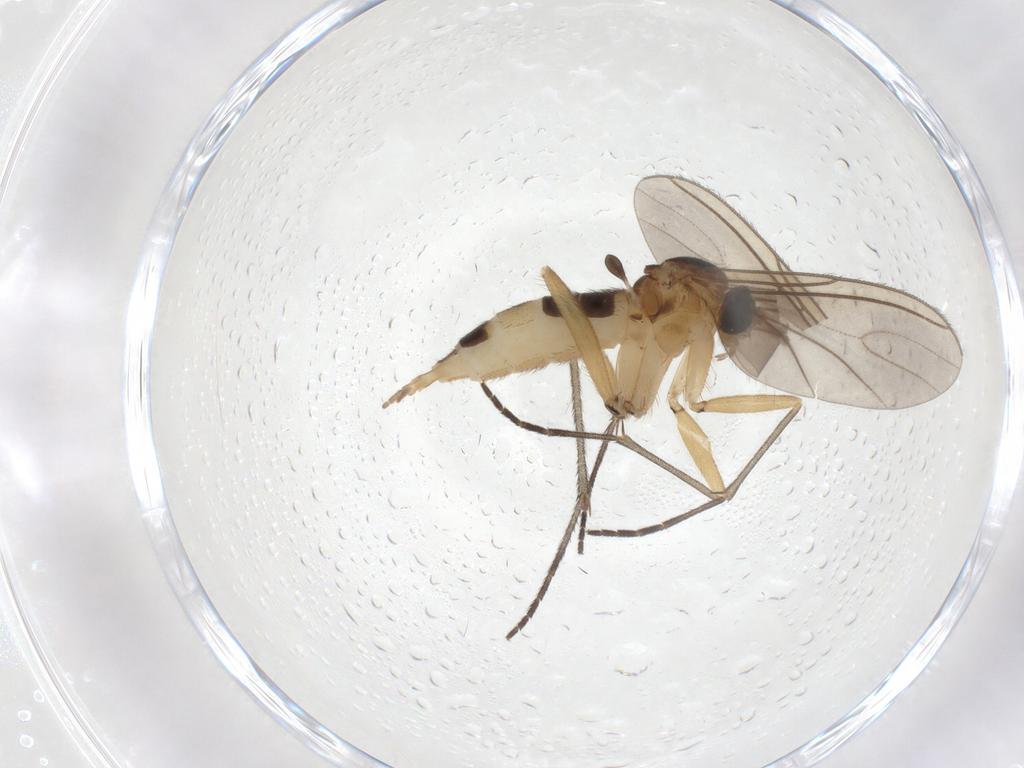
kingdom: Animalia
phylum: Arthropoda
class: Insecta
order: Diptera
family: Sciaridae
